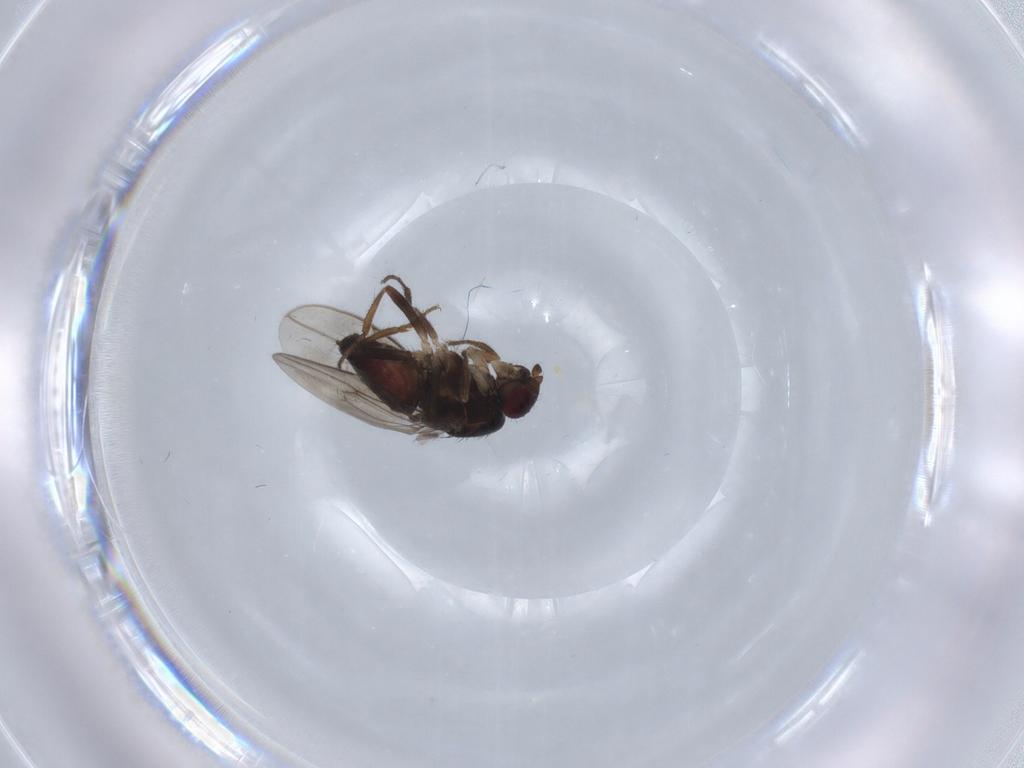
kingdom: Animalia
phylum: Arthropoda
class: Insecta
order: Diptera
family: Sphaeroceridae
